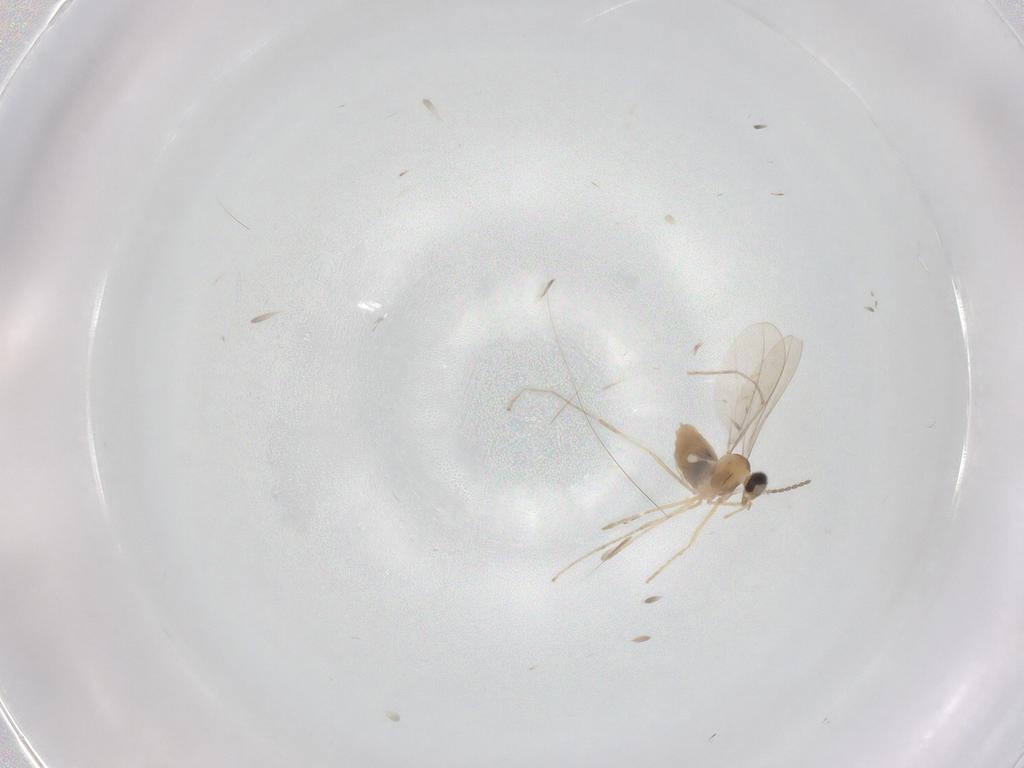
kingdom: Animalia
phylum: Arthropoda
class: Insecta
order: Diptera
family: Cecidomyiidae
